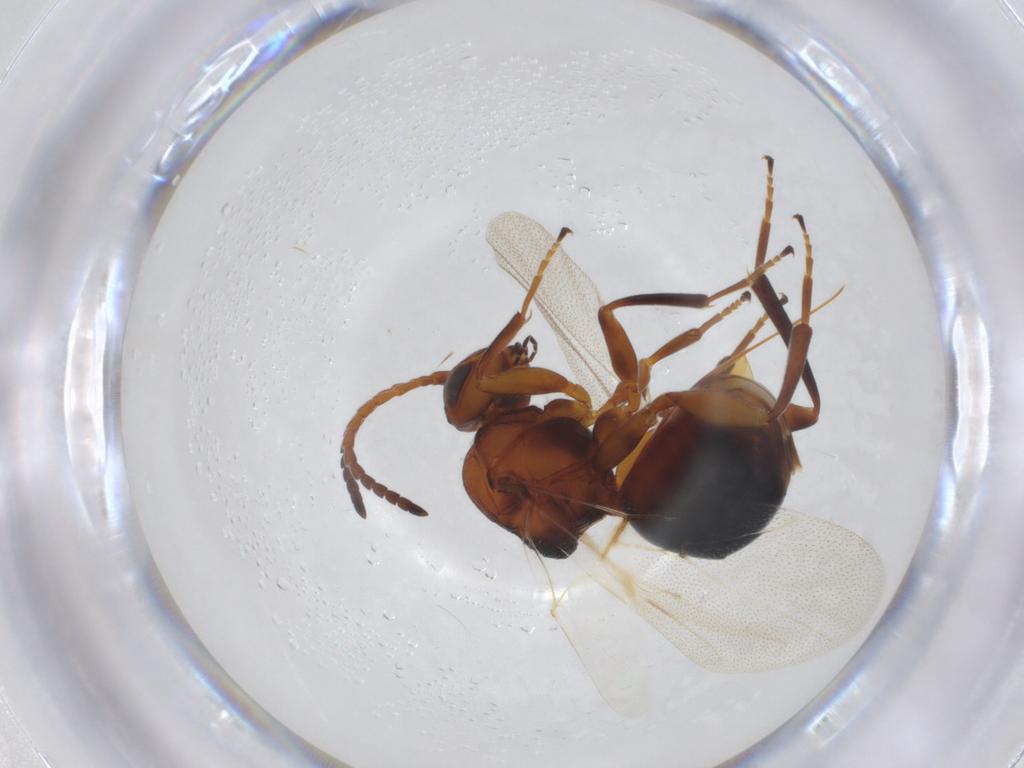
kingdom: Animalia
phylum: Arthropoda
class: Insecta
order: Hymenoptera
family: Cynipidae
